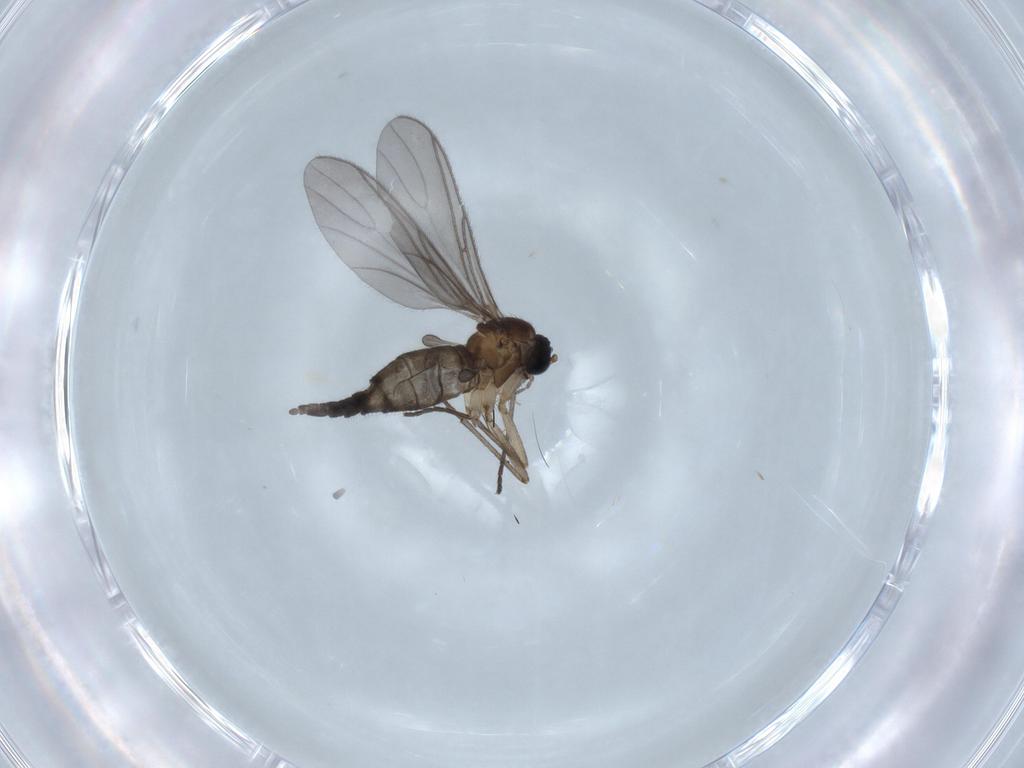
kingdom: Animalia
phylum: Arthropoda
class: Insecta
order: Diptera
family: Sciaridae
